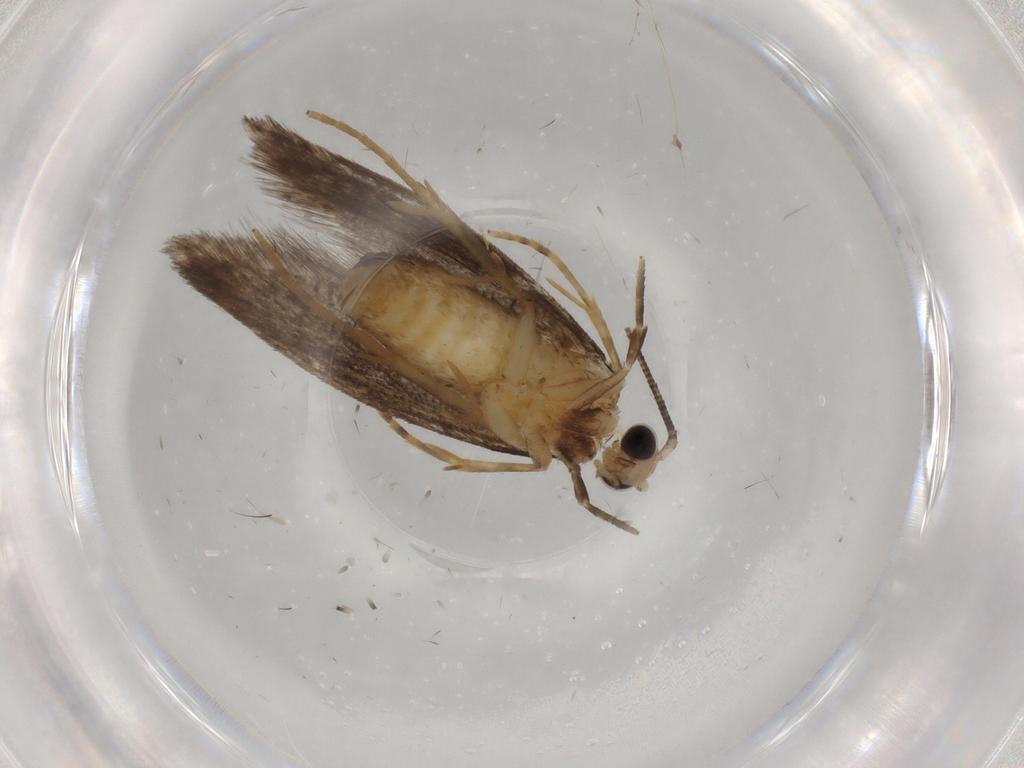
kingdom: Animalia
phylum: Arthropoda
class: Insecta
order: Lepidoptera
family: Tineidae
